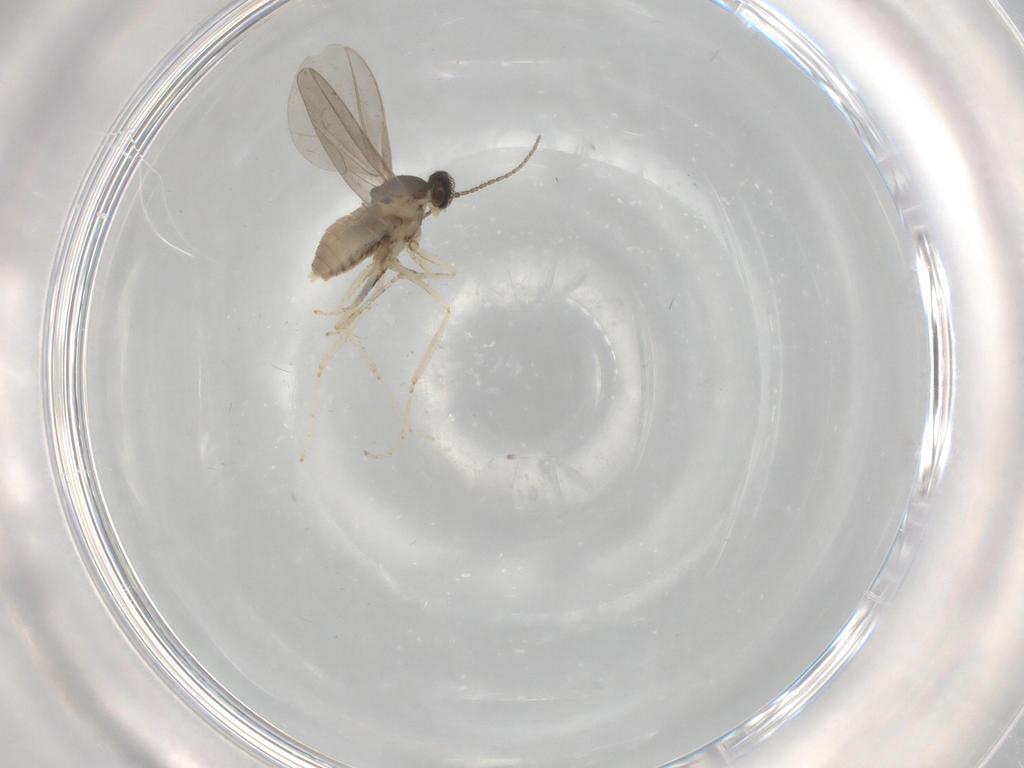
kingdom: Animalia
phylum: Arthropoda
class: Insecta
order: Diptera
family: Cecidomyiidae
